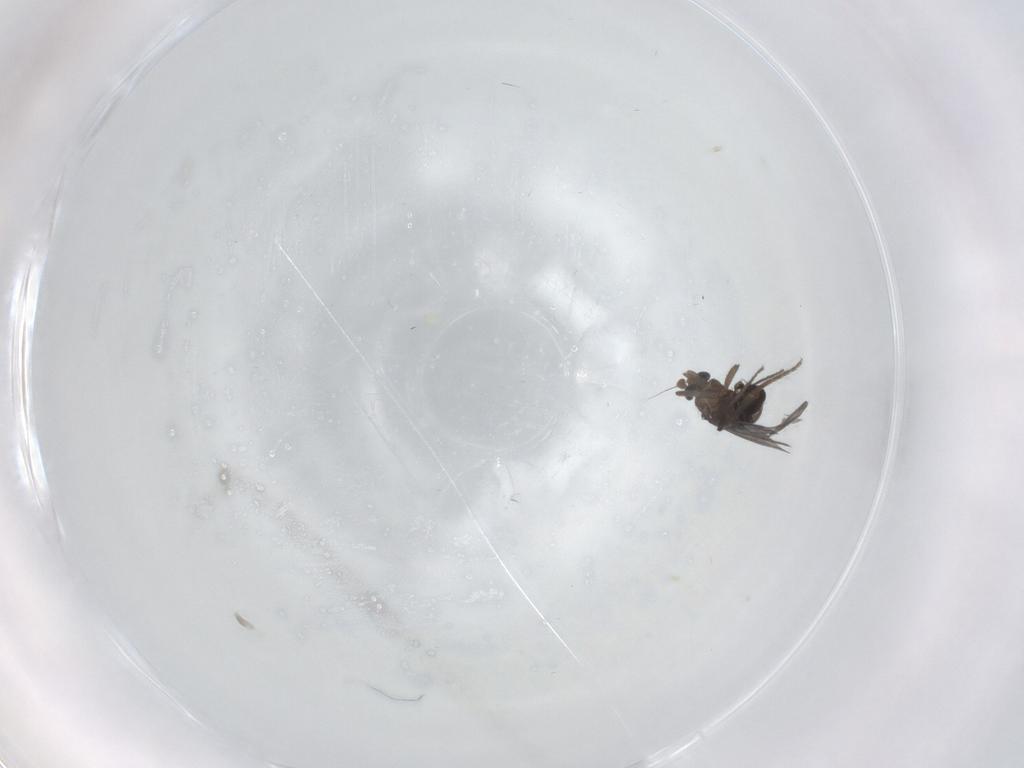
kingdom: Animalia
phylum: Arthropoda
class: Insecta
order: Diptera
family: Phoridae
